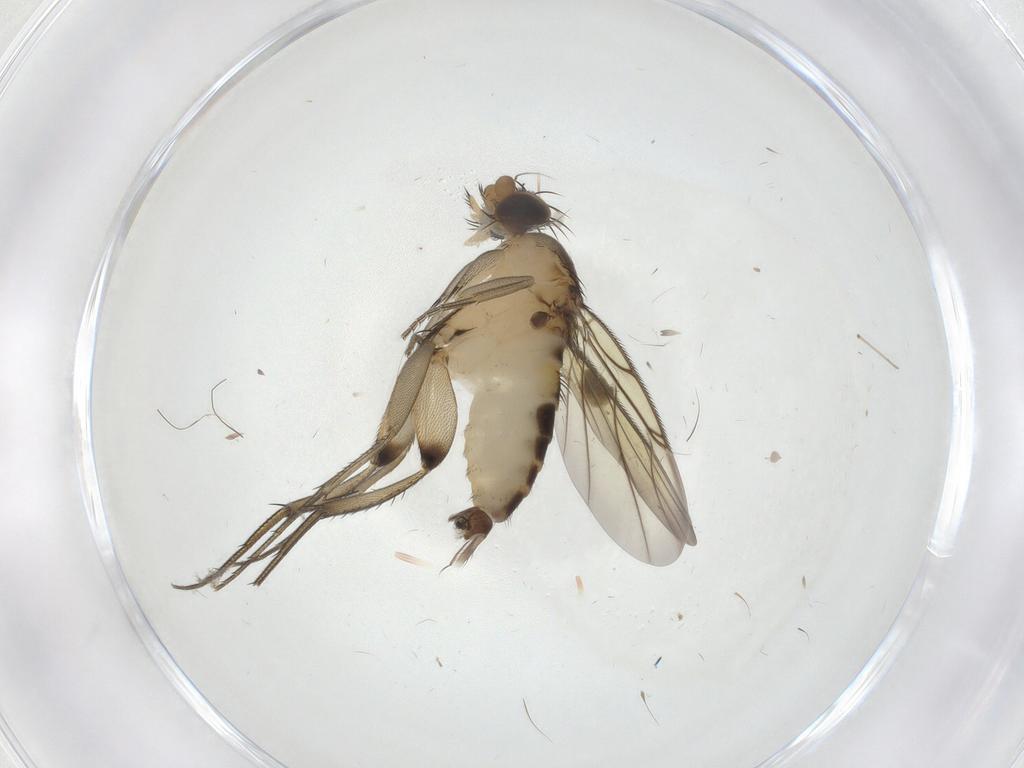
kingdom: Animalia
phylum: Arthropoda
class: Insecta
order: Diptera
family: Phoridae
